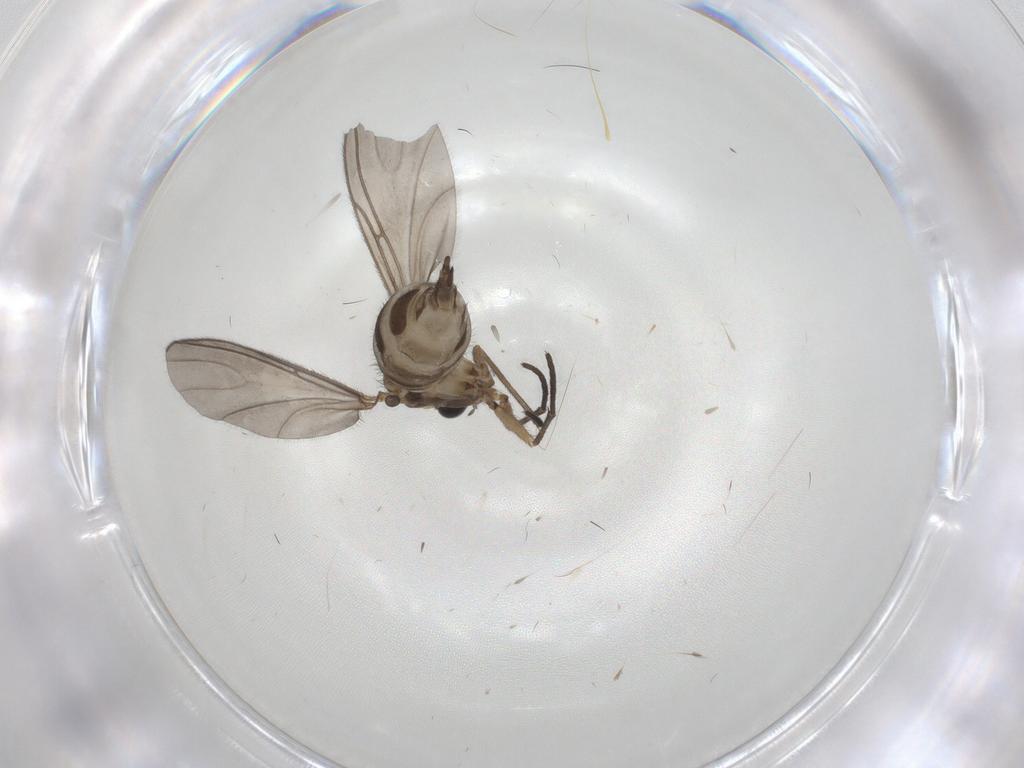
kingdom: Animalia
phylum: Arthropoda
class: Insecta
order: Diptera
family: Sciaridae
